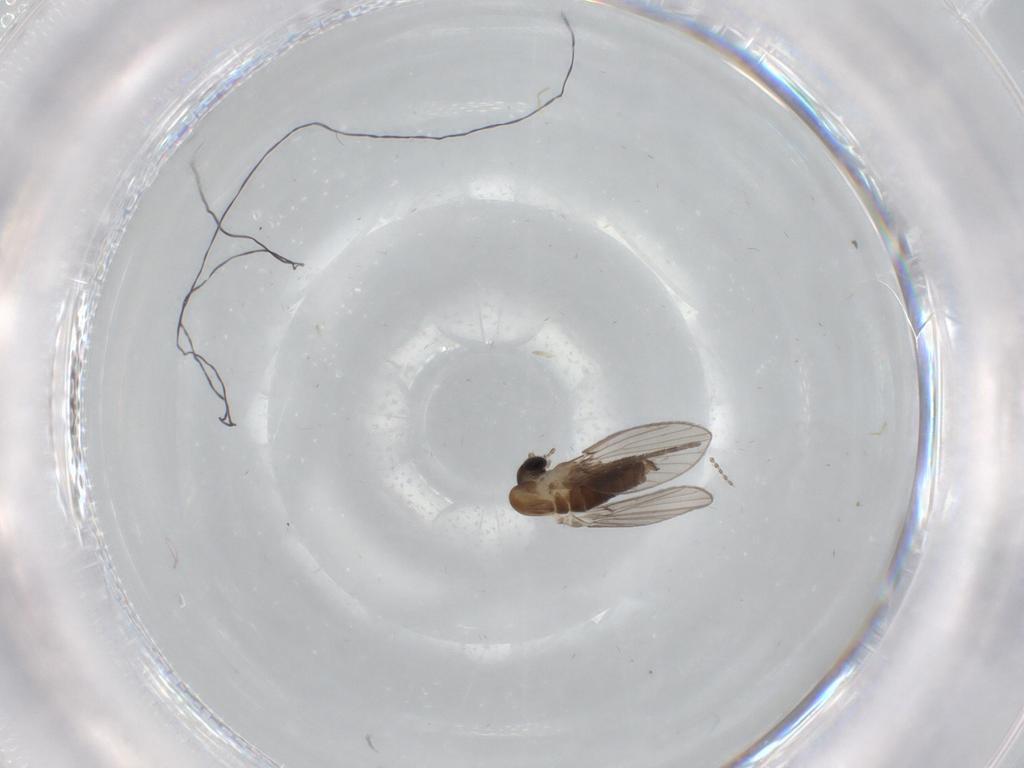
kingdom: Animalia
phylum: Arthropoda
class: Insecta
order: Diptera
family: Psychodidae
